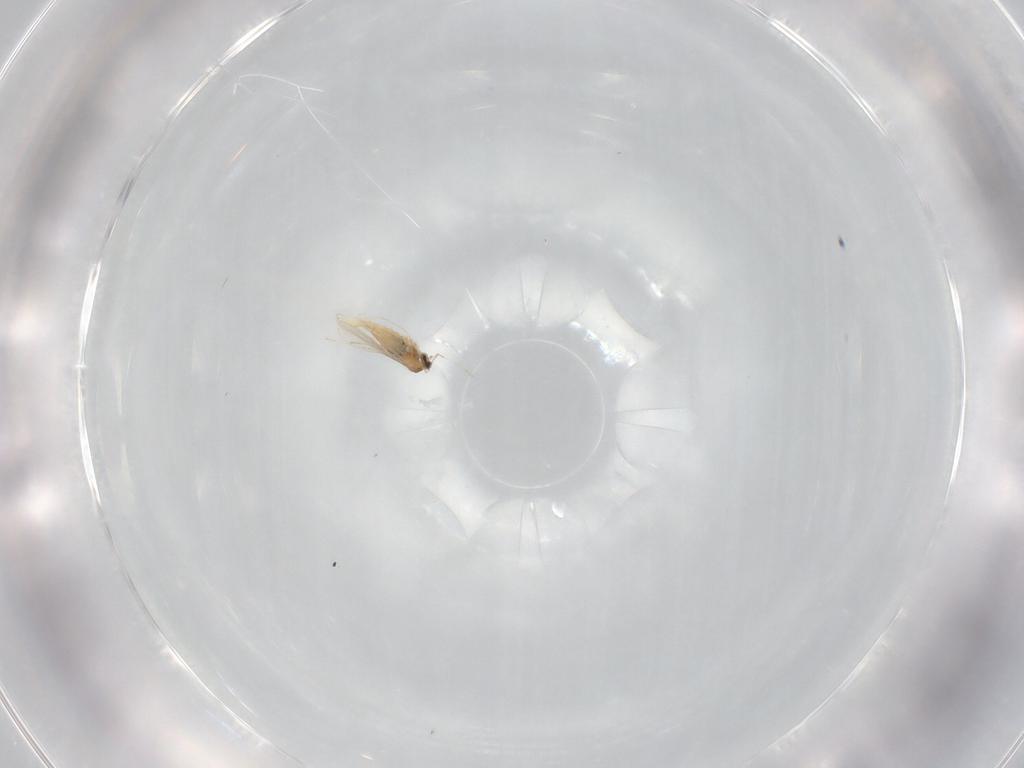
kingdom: Animalia
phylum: Arthropoda
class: Insecta
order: Diptera
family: Cecidomyiidae
